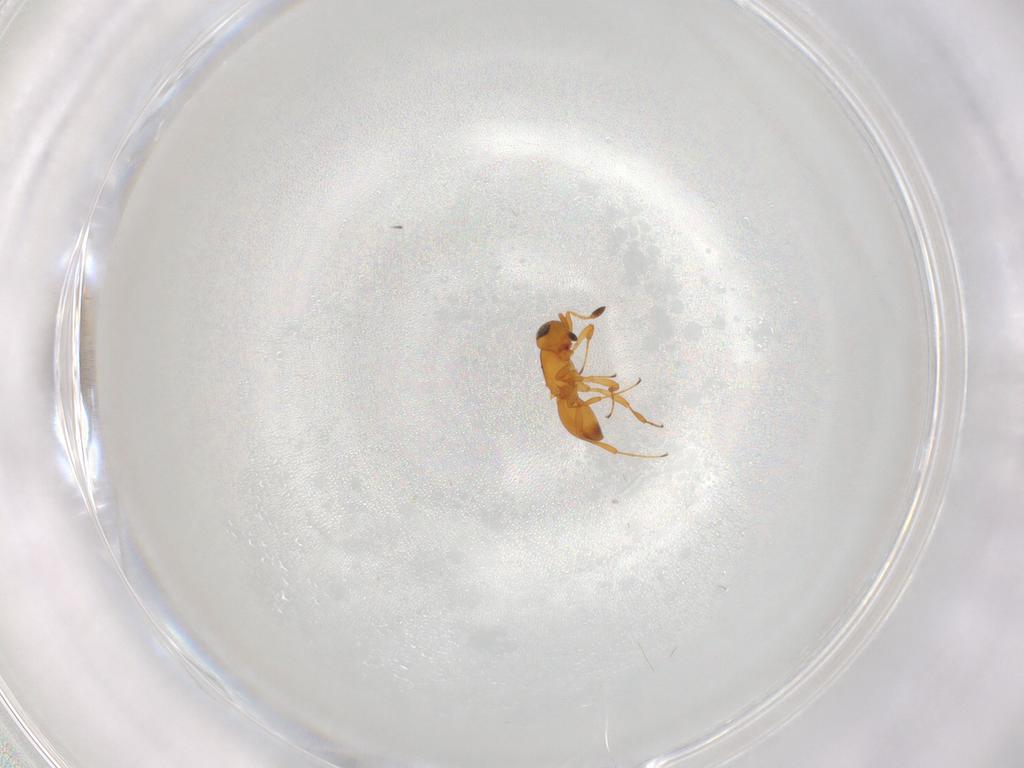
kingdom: Animalia
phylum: Arthropoda
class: Insecta
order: Hymenoptera
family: Platygastridae
